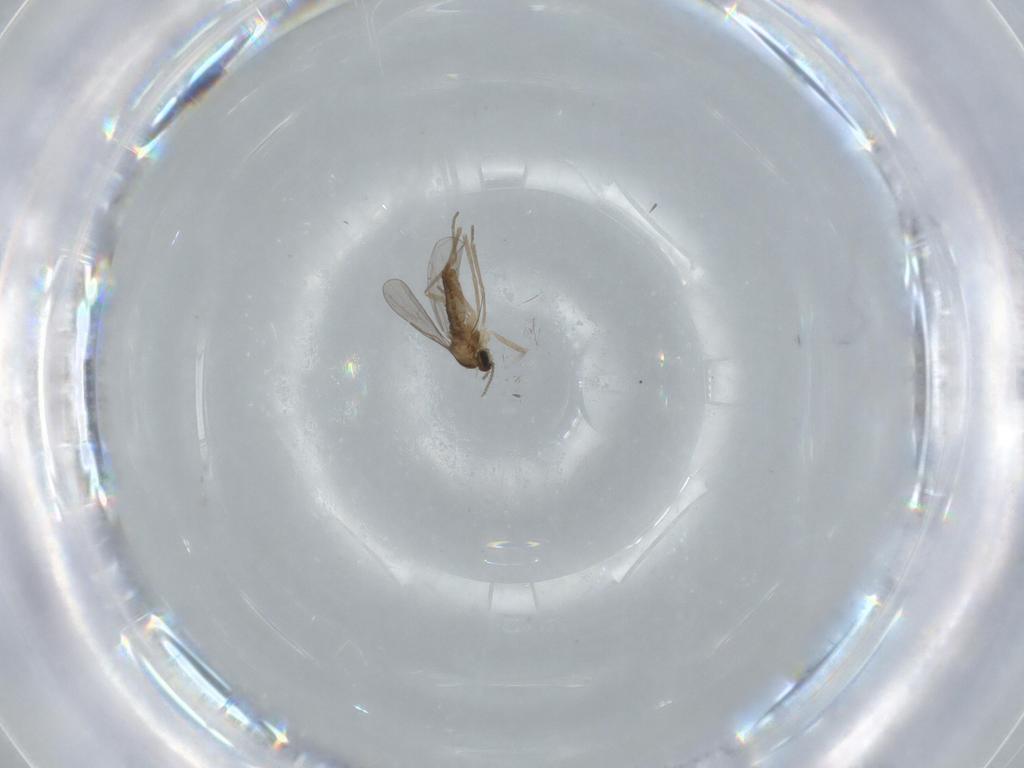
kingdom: Animalia
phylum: Arthropoda
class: Insecta
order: Diptera
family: Cecidomyiidae
